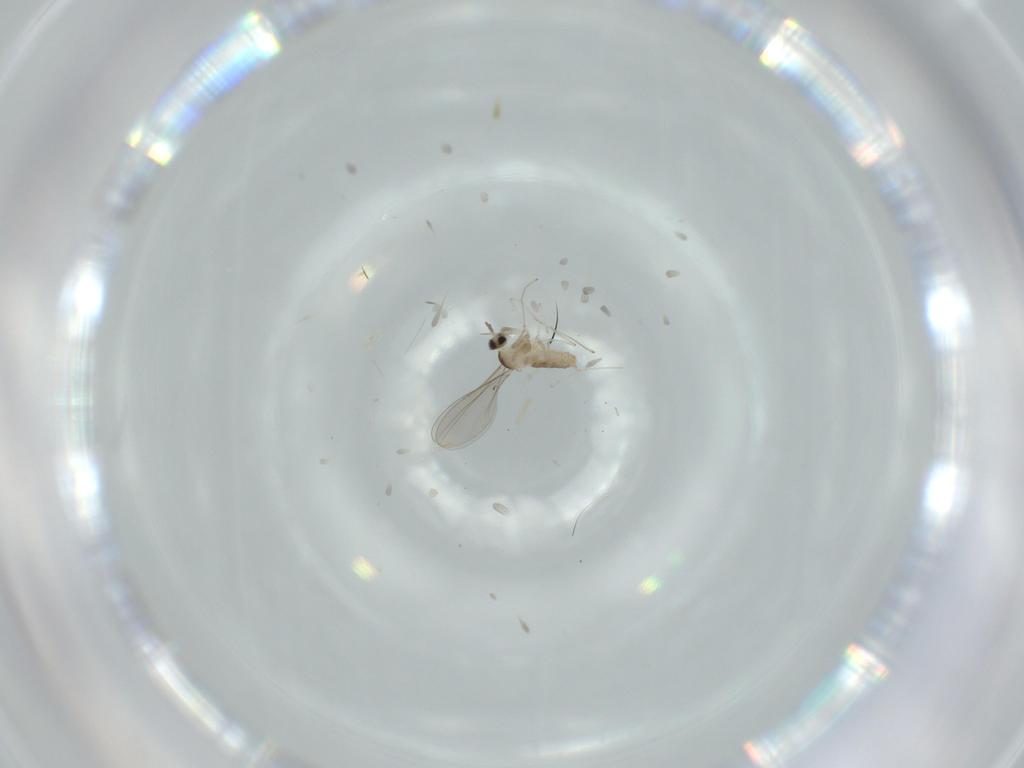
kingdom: Animalia
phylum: Arthropoda
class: Insecta
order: Diptera
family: Cecidomyiidae
